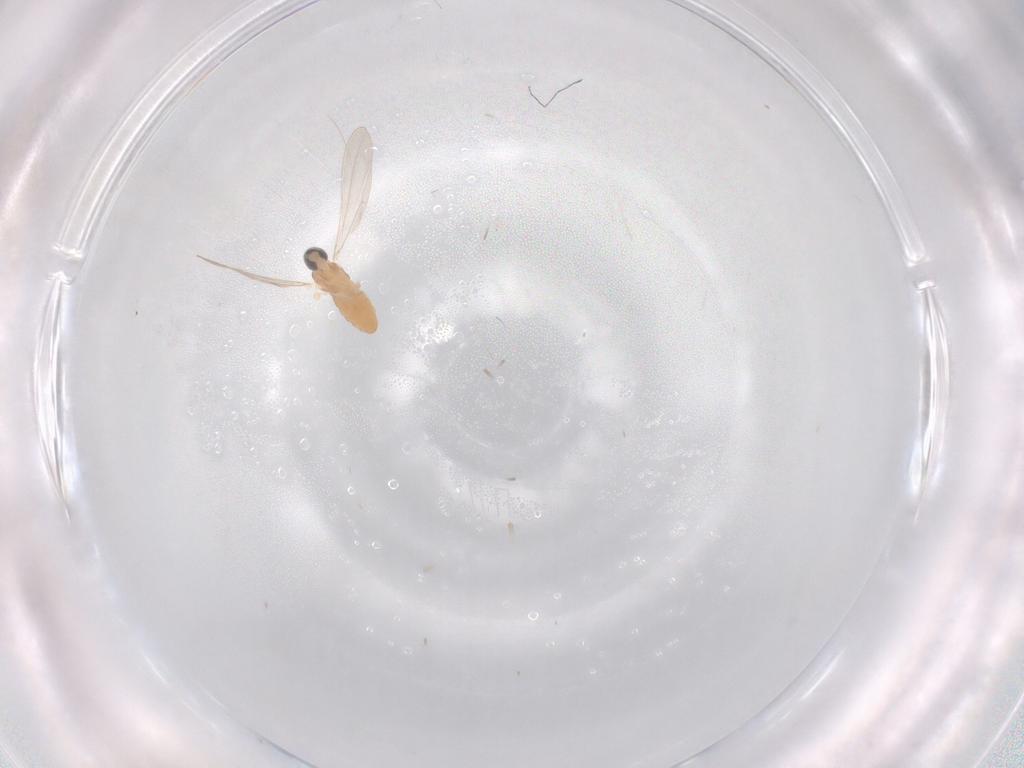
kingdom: Animalia
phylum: Arthropoda
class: Insecta
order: Diptera
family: Cecidomyiidae
